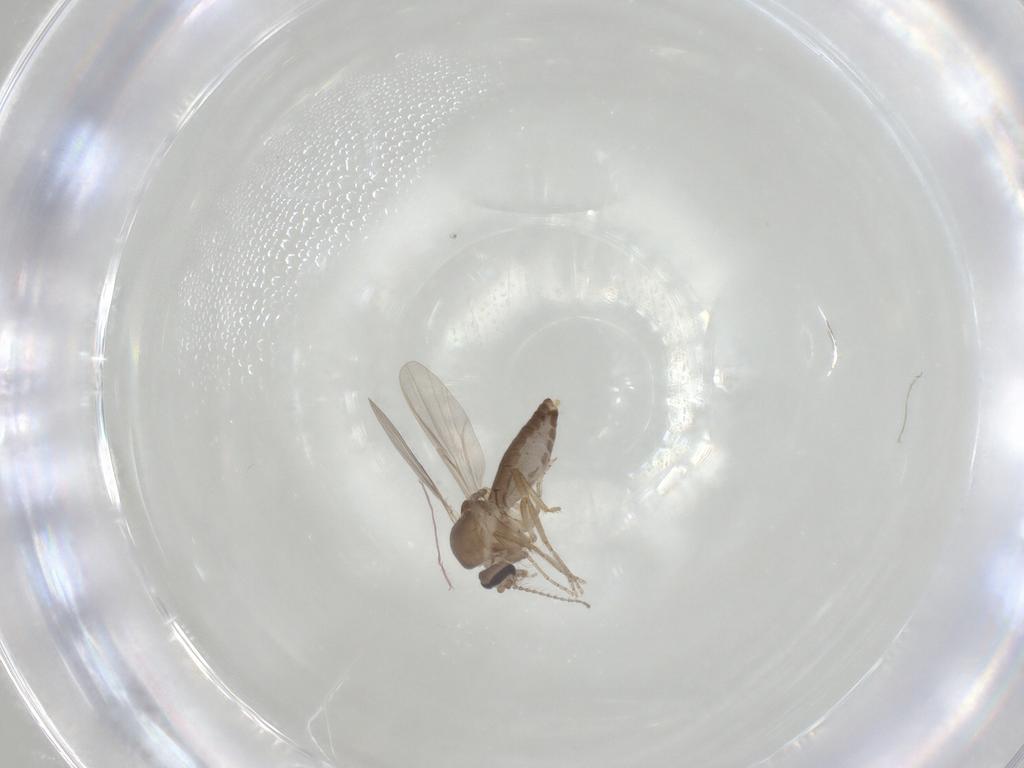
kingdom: Animalia
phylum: Arthropoda
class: Insecta
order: Diptera
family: Ceratopogonidae
